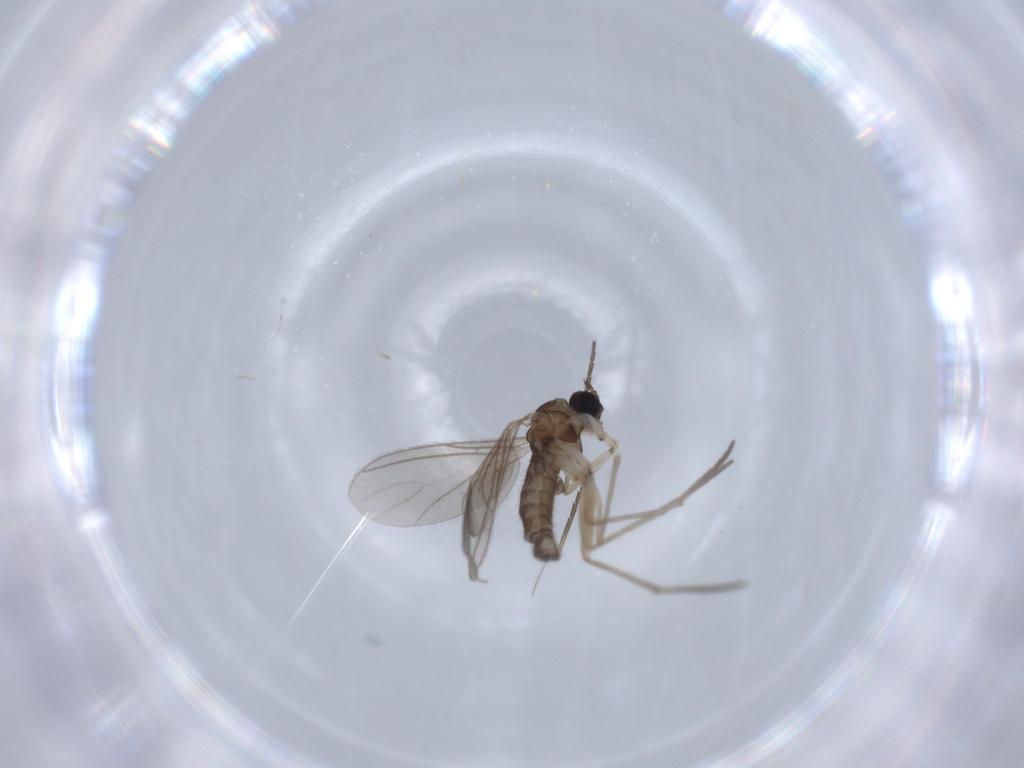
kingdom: Animalia
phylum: Arthropoda
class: Insecta
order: Diptera
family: Sciaridae
